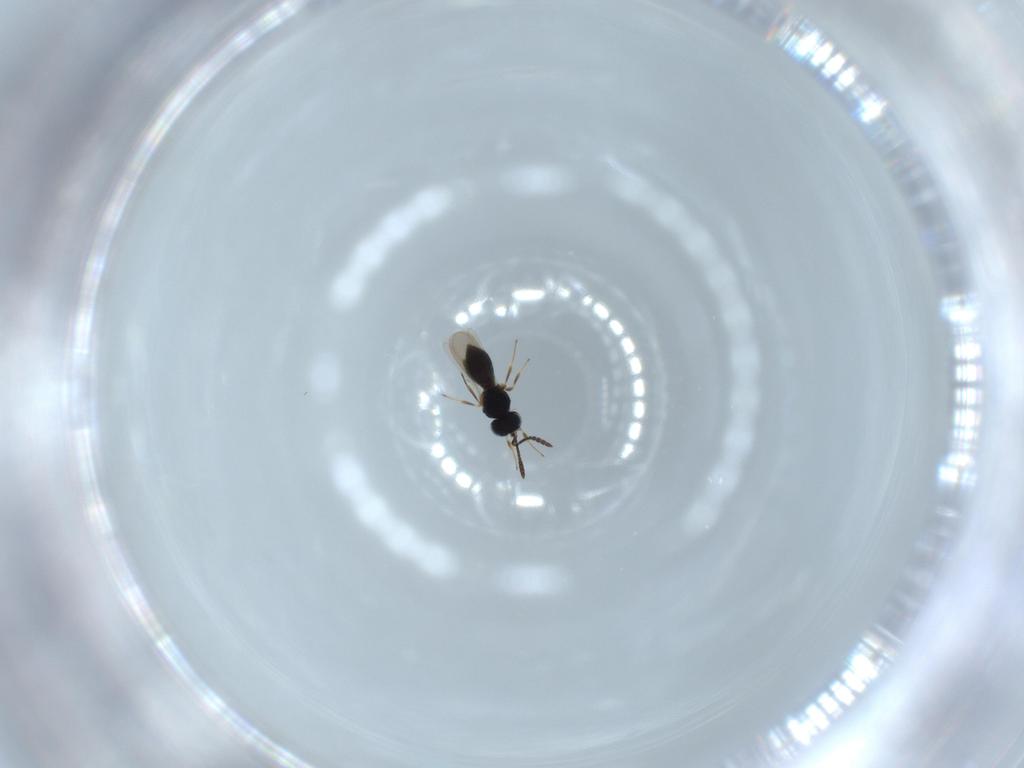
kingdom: Animalia
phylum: Arthropoda
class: Insecta
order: Hymenoptera
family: Scelionidae
